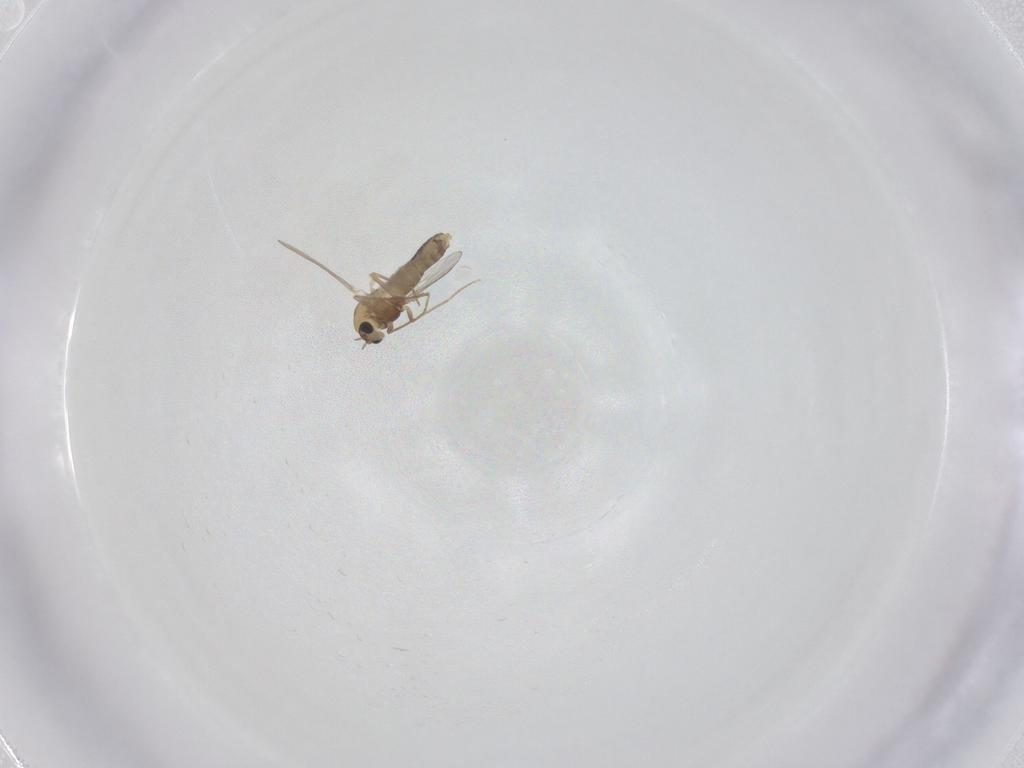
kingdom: Animalia
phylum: Arthropoda
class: Insecta
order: Diptera
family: Chironomidae
